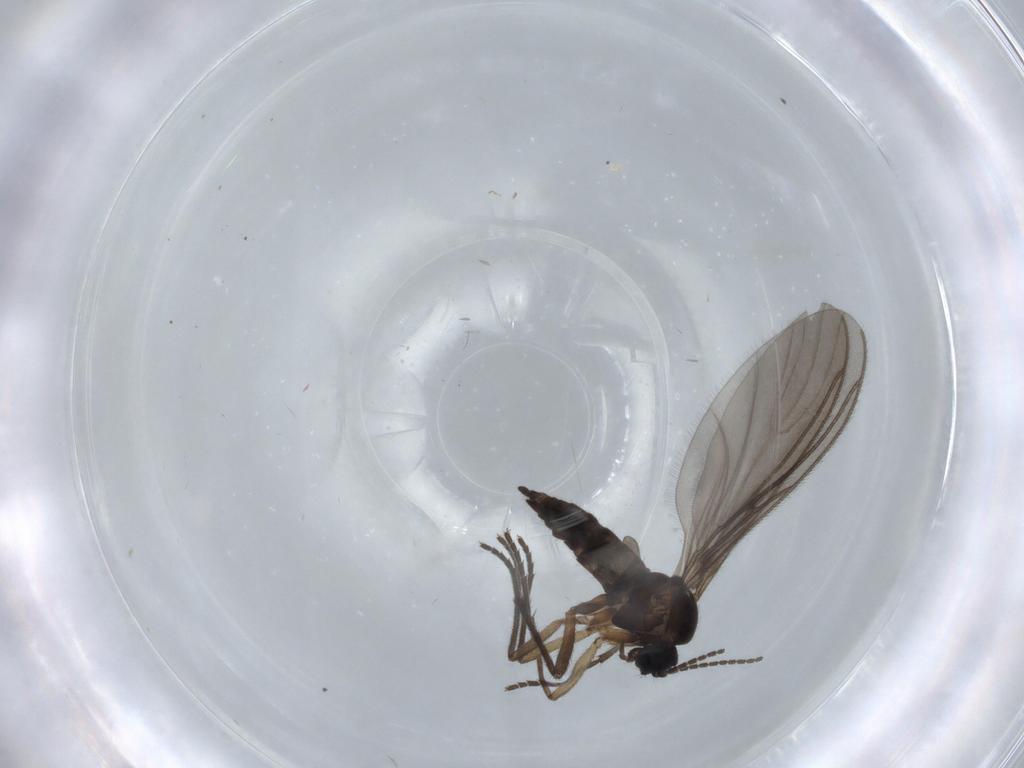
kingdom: Animalia
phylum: Arthropoda
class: Insecta
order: Diptera
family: Sciaridae
